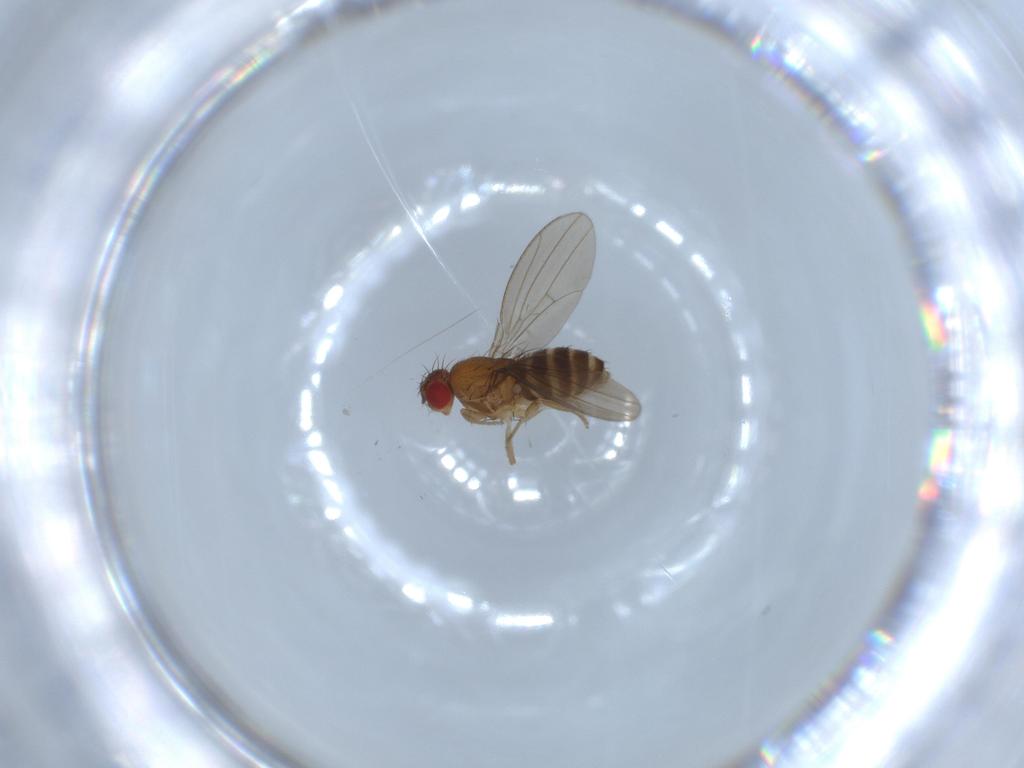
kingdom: Animalia
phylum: Arthropoda
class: Insecta
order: Diptera
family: Drosophilidae
